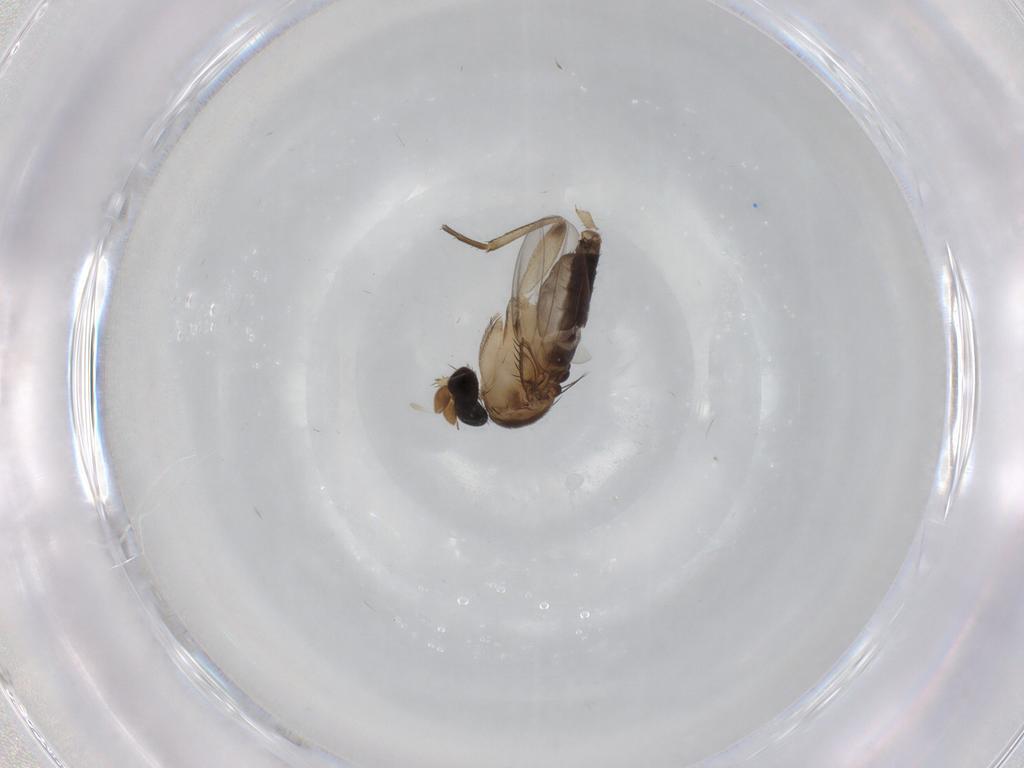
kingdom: Animalia
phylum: Arthropoda
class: Insecta
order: Diptera
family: Phoridae
